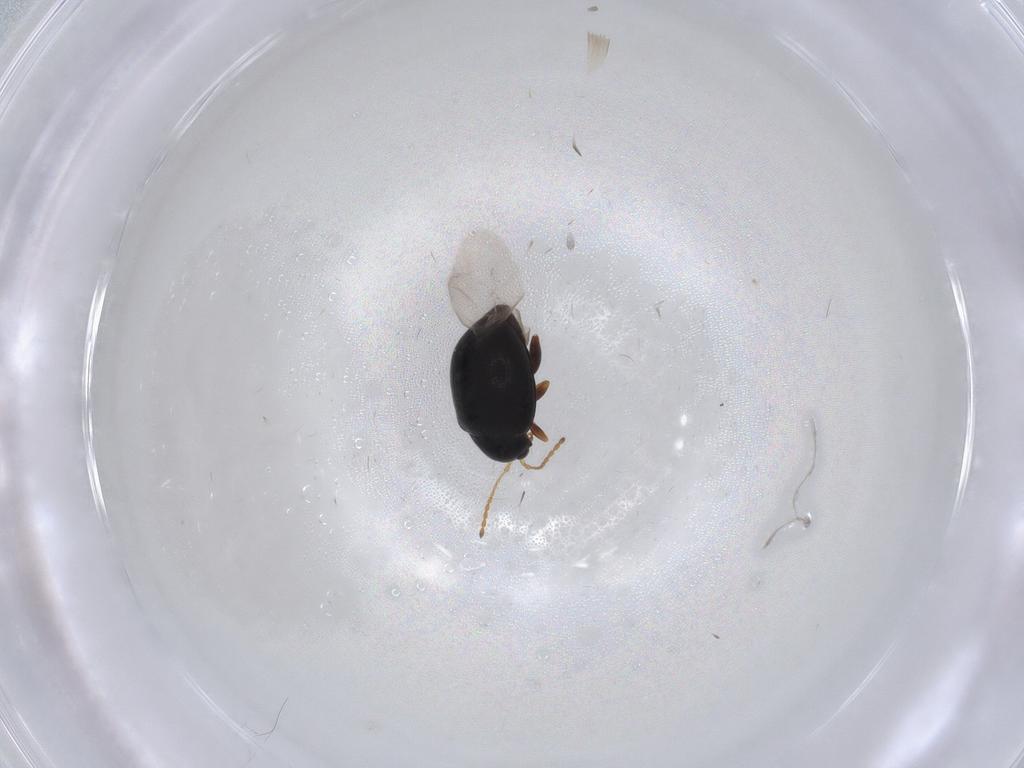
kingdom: Animalia
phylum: Arthropoda
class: Insecta
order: Coleoptera
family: Chrysomelidae
